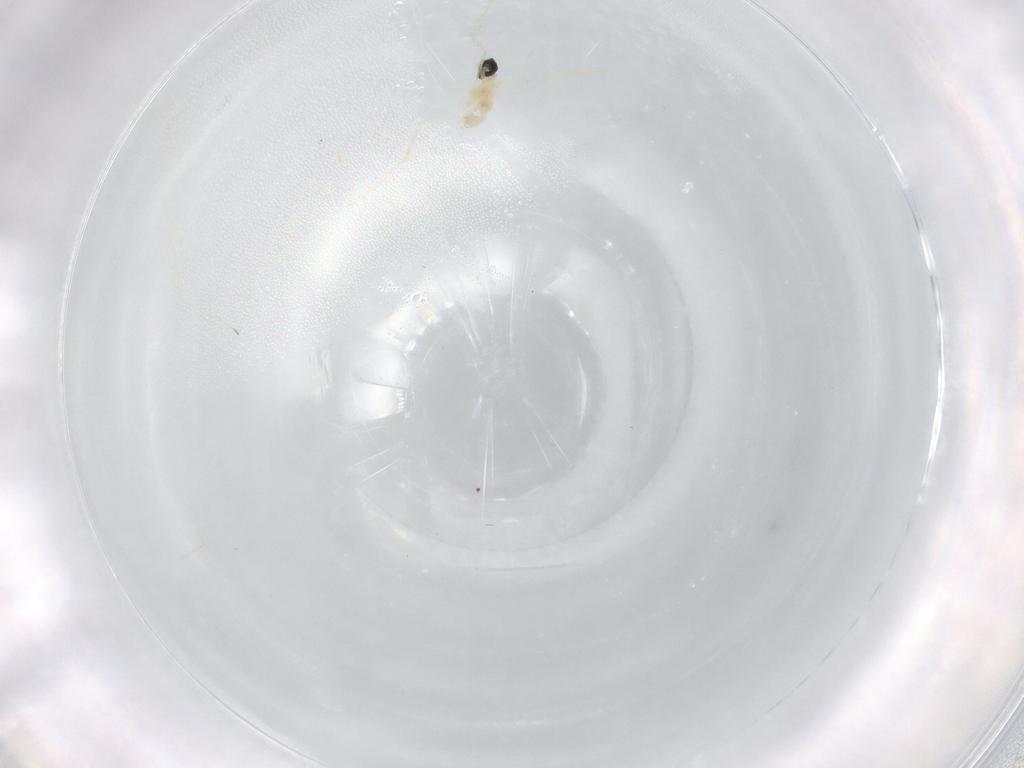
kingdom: Animalia
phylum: Arthropoda
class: Insecta
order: Diptera
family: Cecidomyiidae
